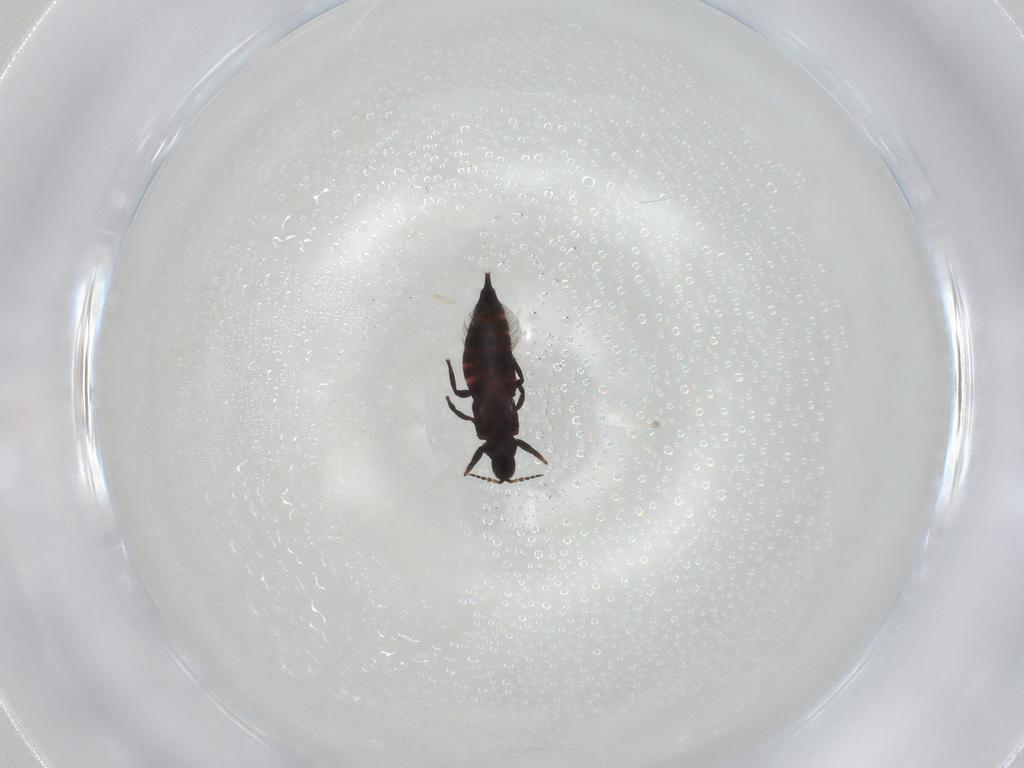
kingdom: Animalia
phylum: Arthropoda
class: Insecta
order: Thysanoptera
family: Phlaeothripidae
